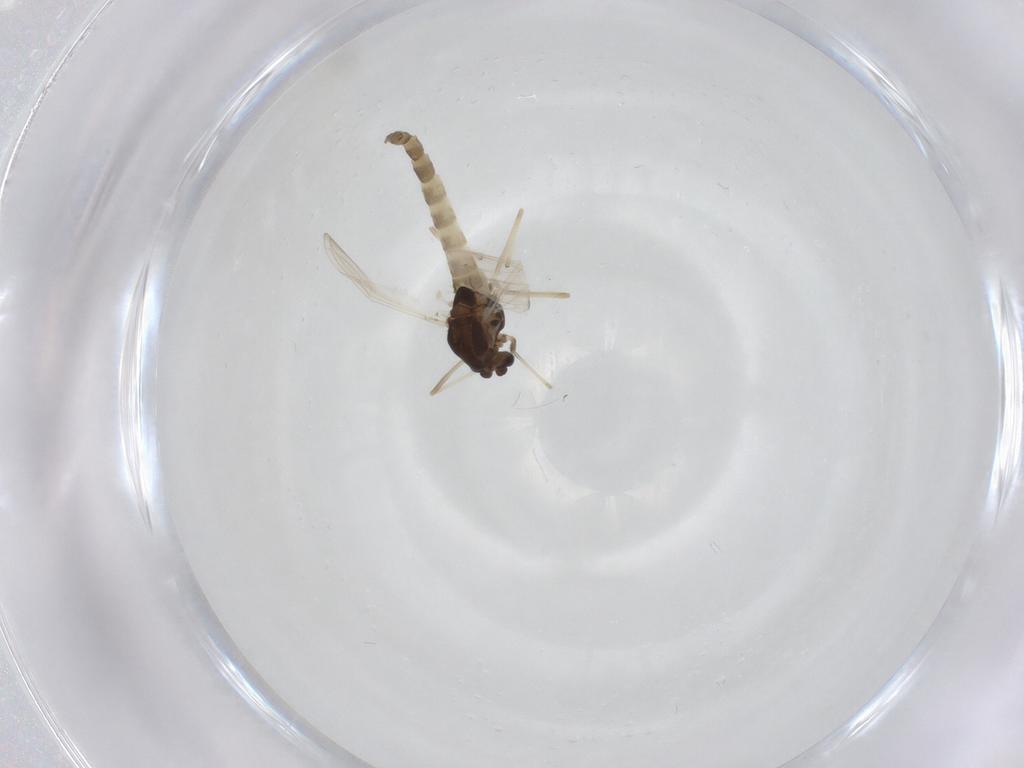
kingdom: Animalia
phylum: Arthropoda
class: Insecta
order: Diptera
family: Chironomidae
